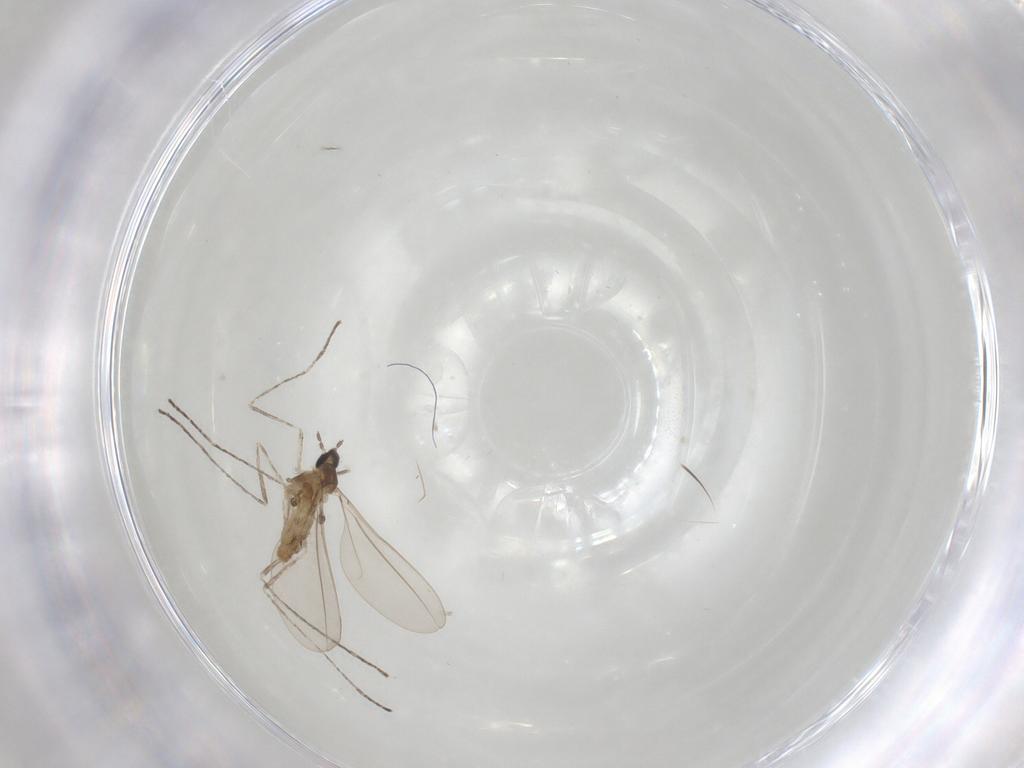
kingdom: Animalia
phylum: Arthropoda
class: Insecta
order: Diptera
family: Cecidomyiidae
